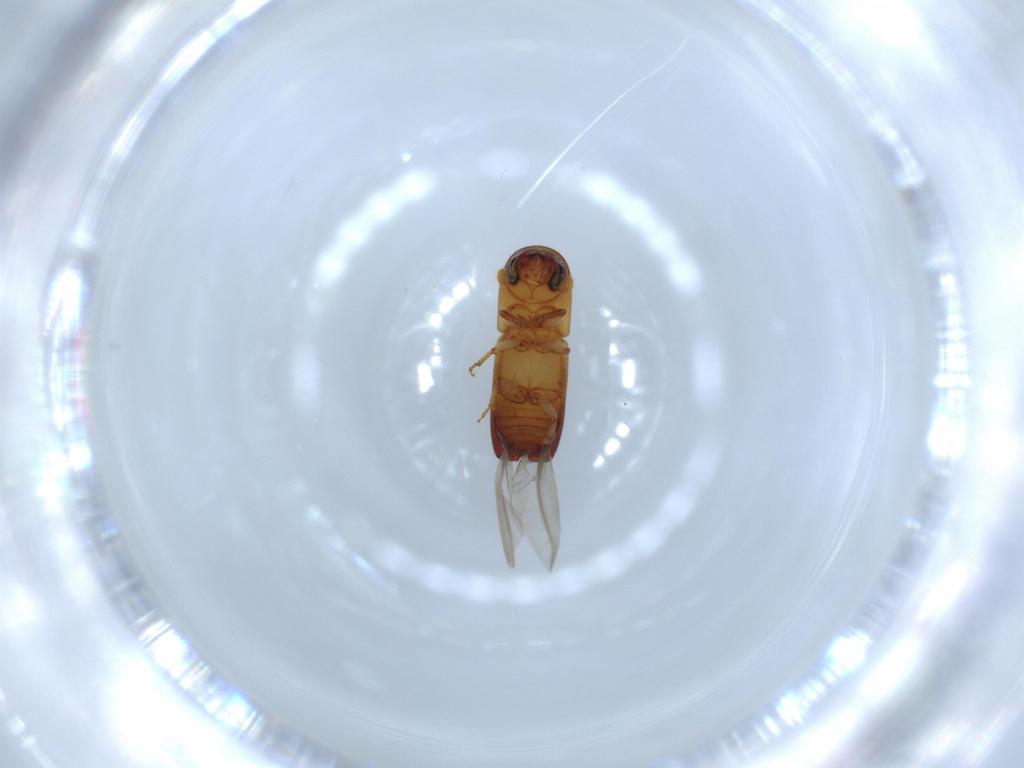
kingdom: Animalia
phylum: Arthropoda
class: Insecta
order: Coleoptera
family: Curculionidae
